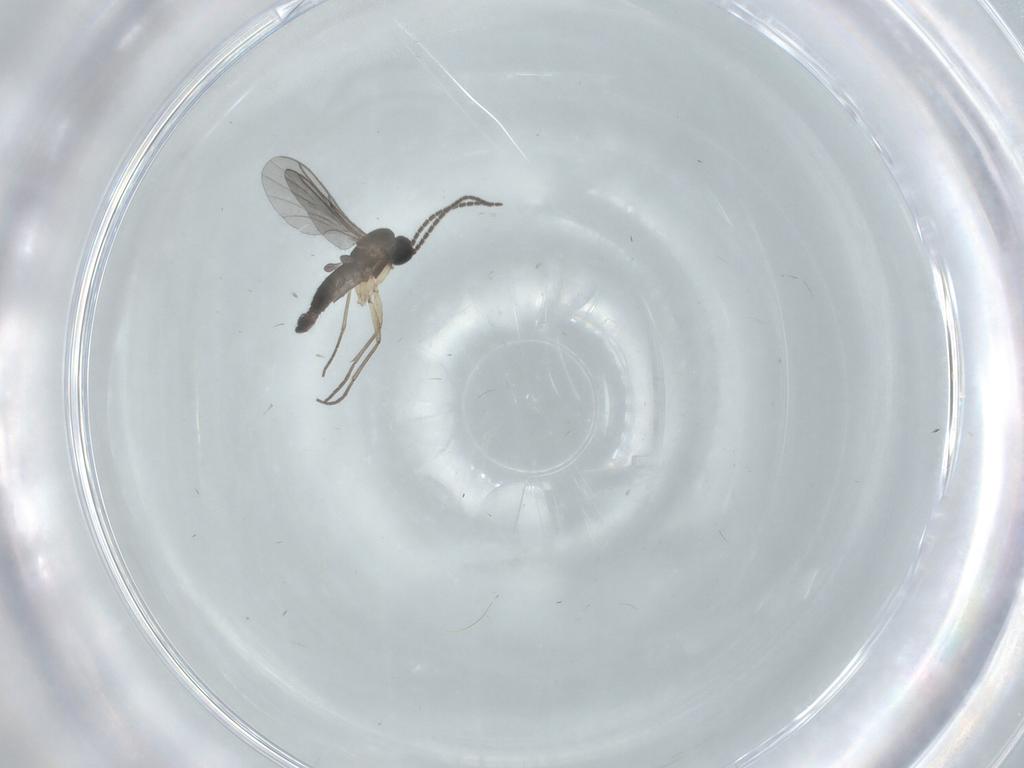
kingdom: Animalia
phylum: Arthropoda
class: Insecta
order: Diptera
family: Sciaridae
